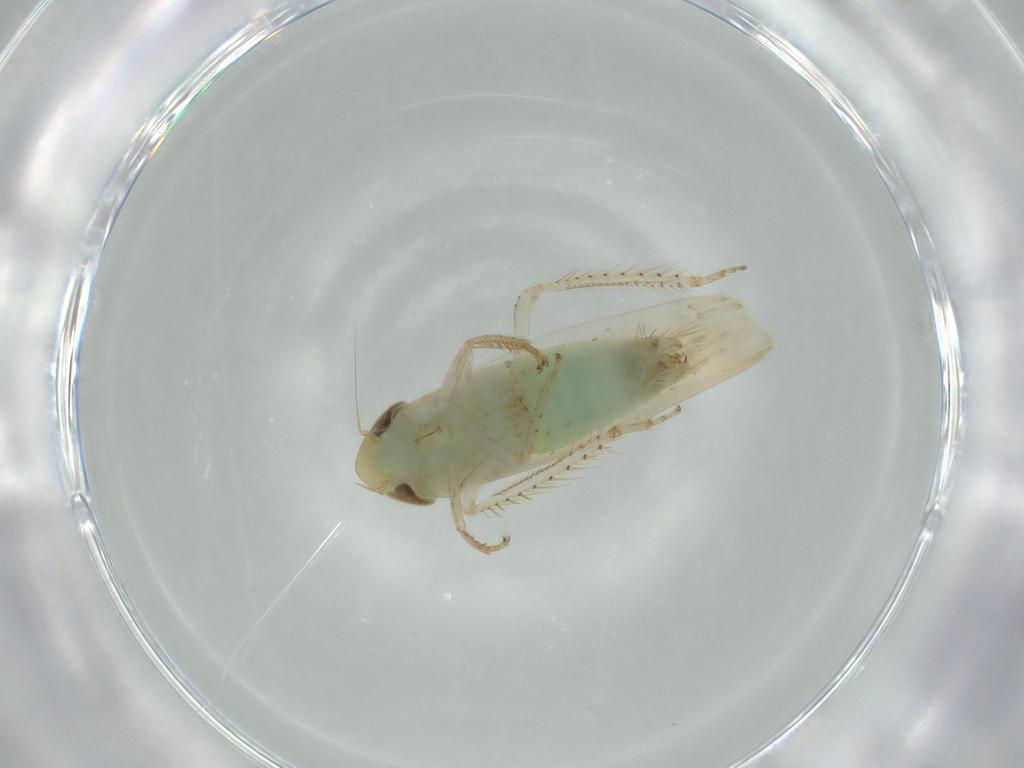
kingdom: Animalia
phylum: Arthropoda
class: Insecta
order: Hemiptera
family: Cicadellidae
